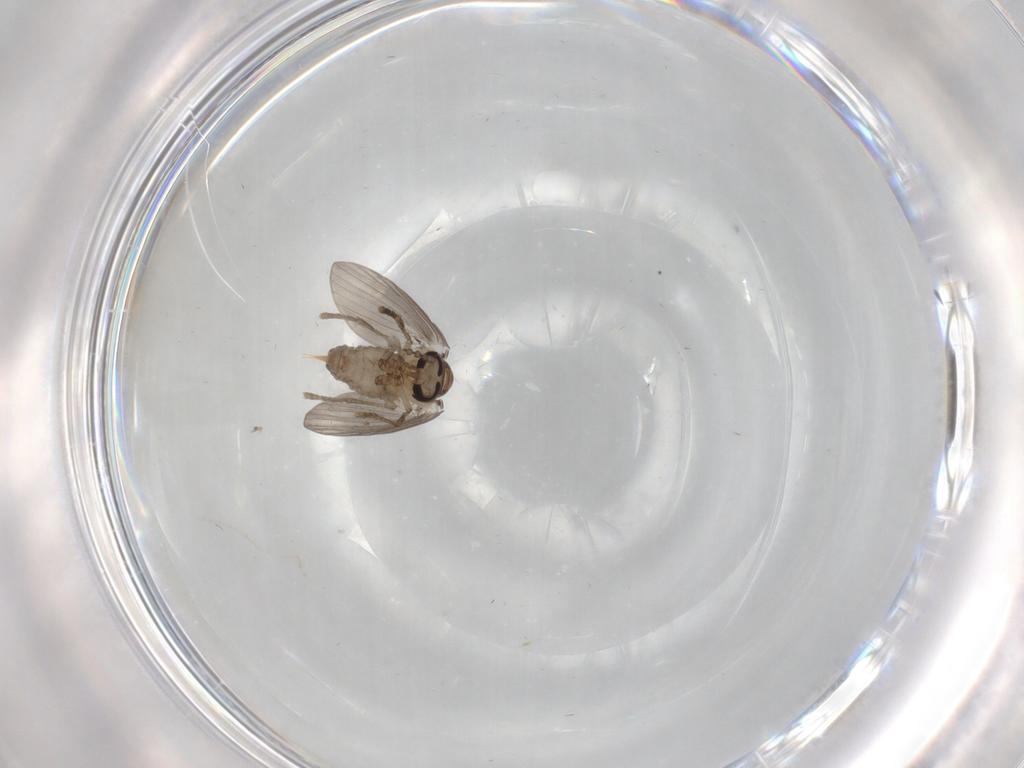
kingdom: Animalia
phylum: Arthropoda
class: Insecta
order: Diptera
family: Psychodidae
